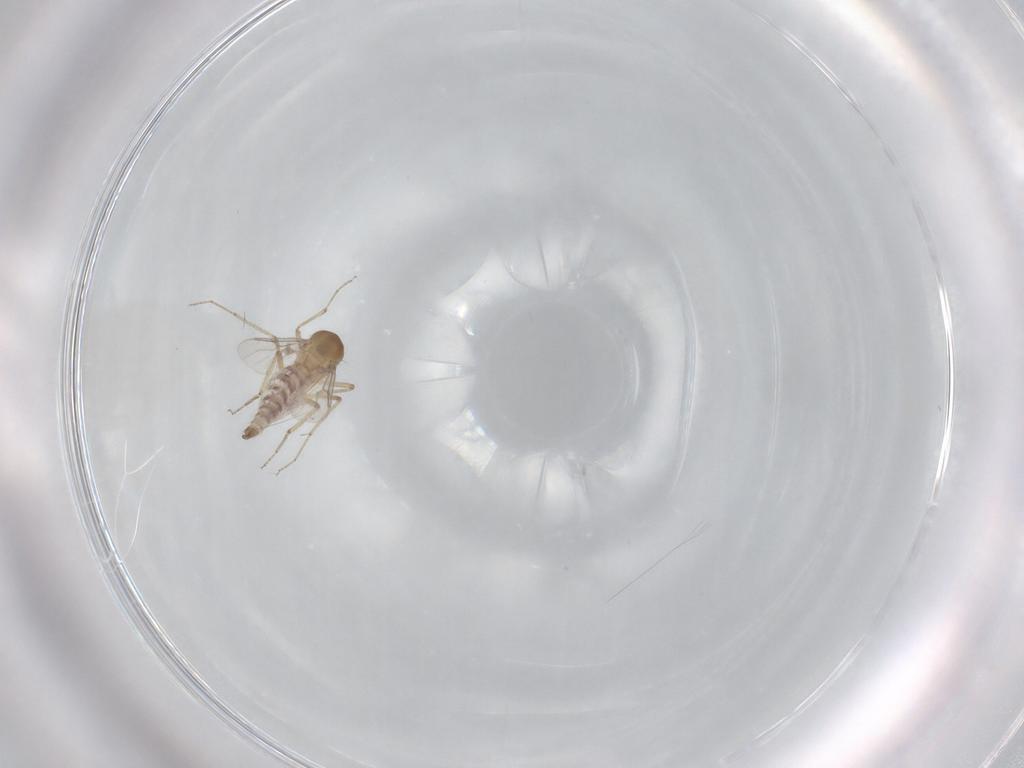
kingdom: Animalia
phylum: Arthropoda
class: Insecta
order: Diptera
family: Tipulidae
